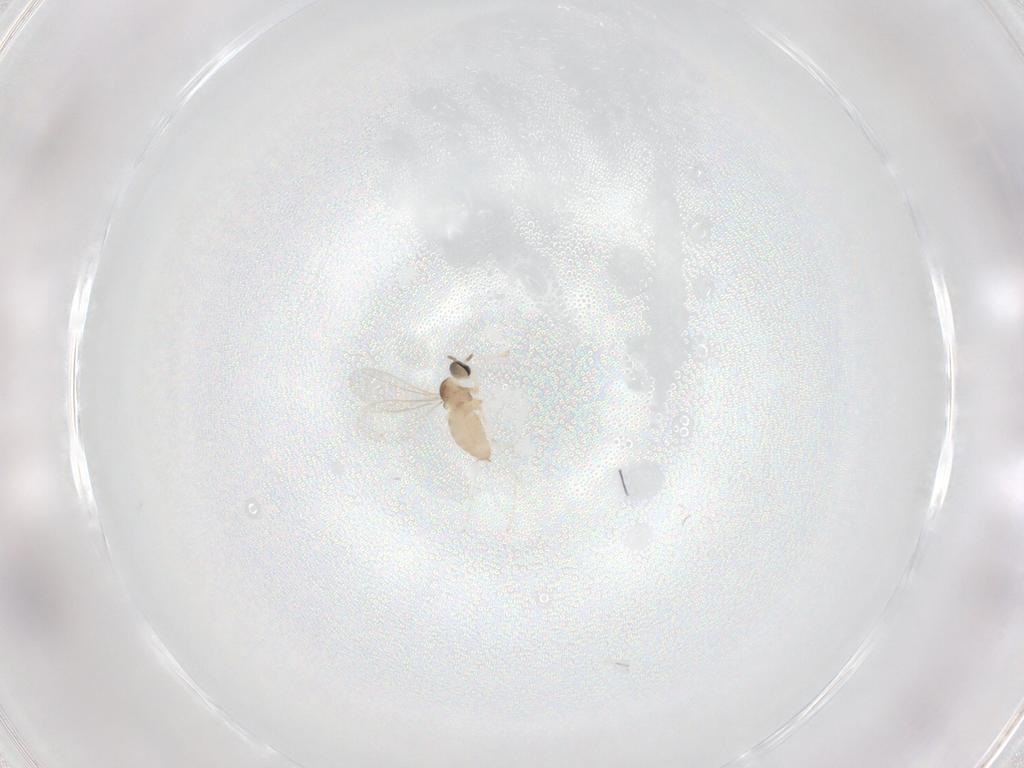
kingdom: Animalia
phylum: Arthropoda
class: Insecta
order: Diptera
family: Cecidomyiidae
